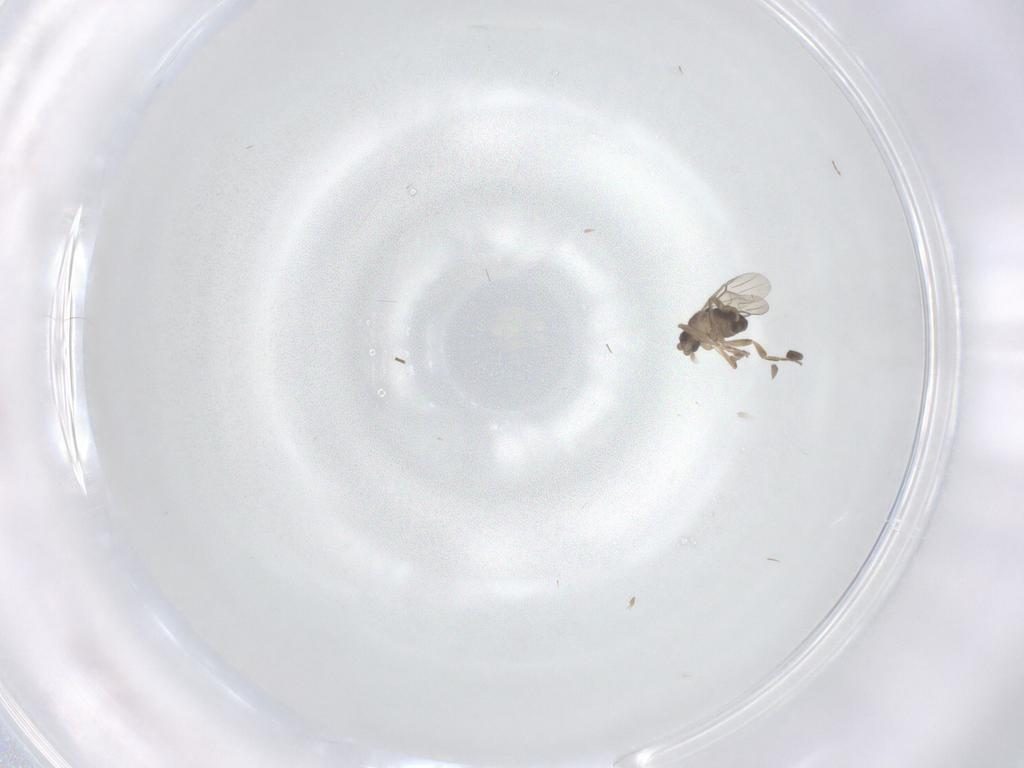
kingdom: Animalia
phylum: Arthropoda
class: Insecta
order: Diptera
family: Phoridae
